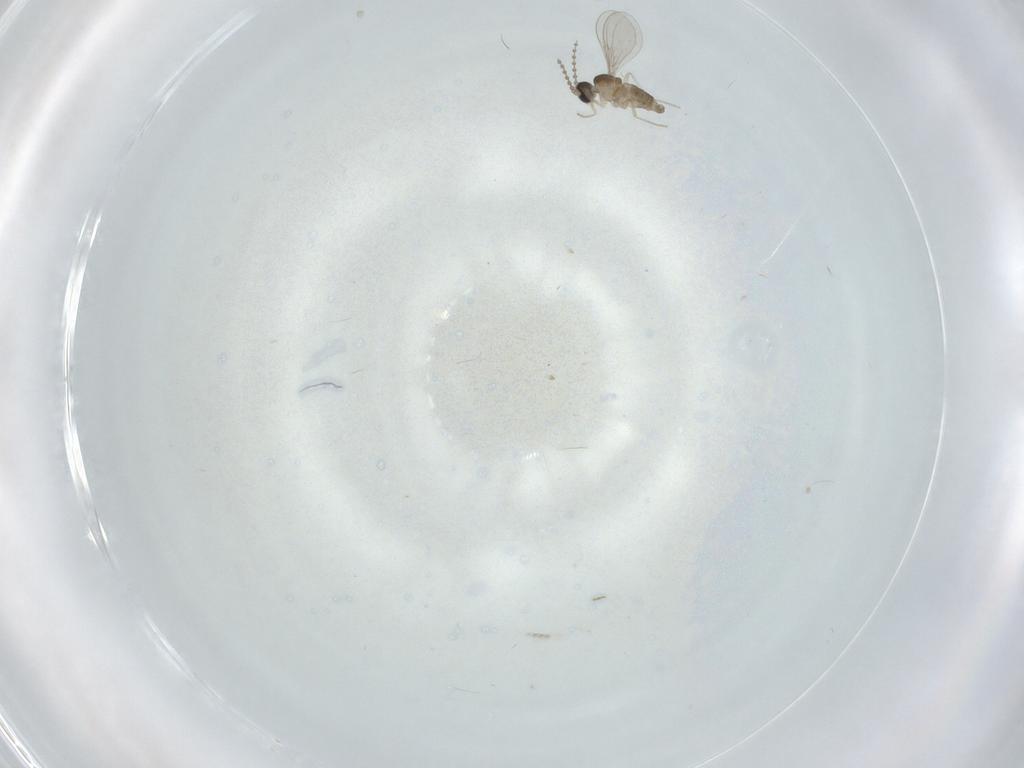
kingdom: Animalia
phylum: Arthropoda
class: Insecta
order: Diptera
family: Cecidomyiidae
